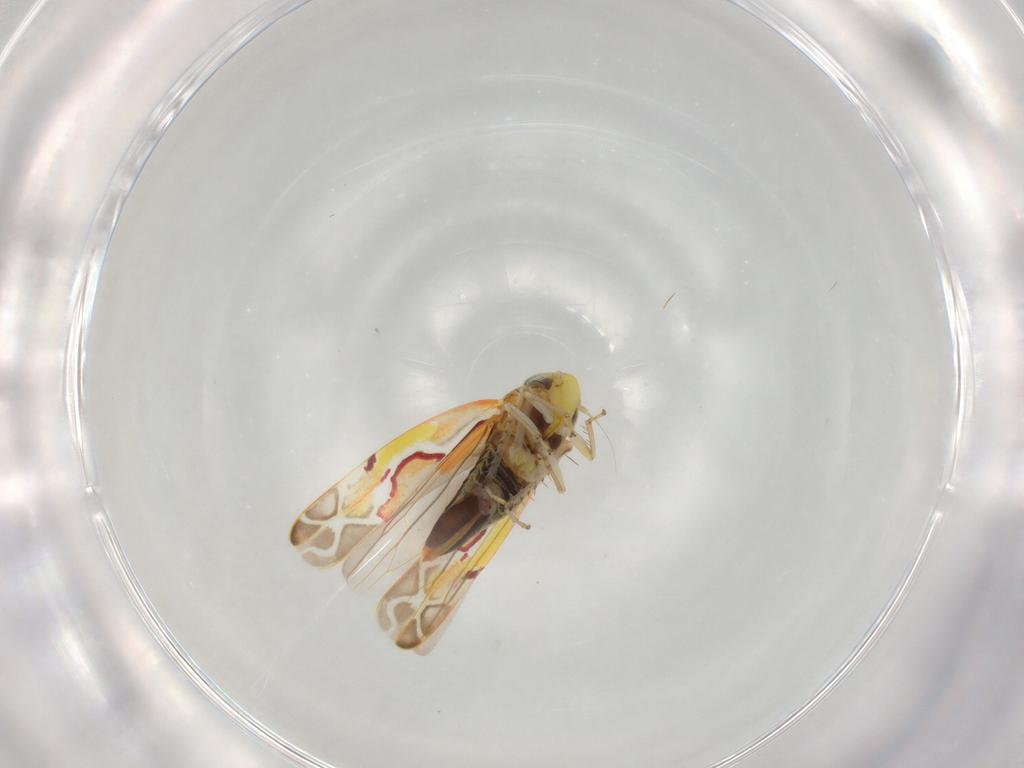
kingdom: Animalia
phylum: Arthropoda
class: Insecta
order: Hemiptera
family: Cicadellidae
